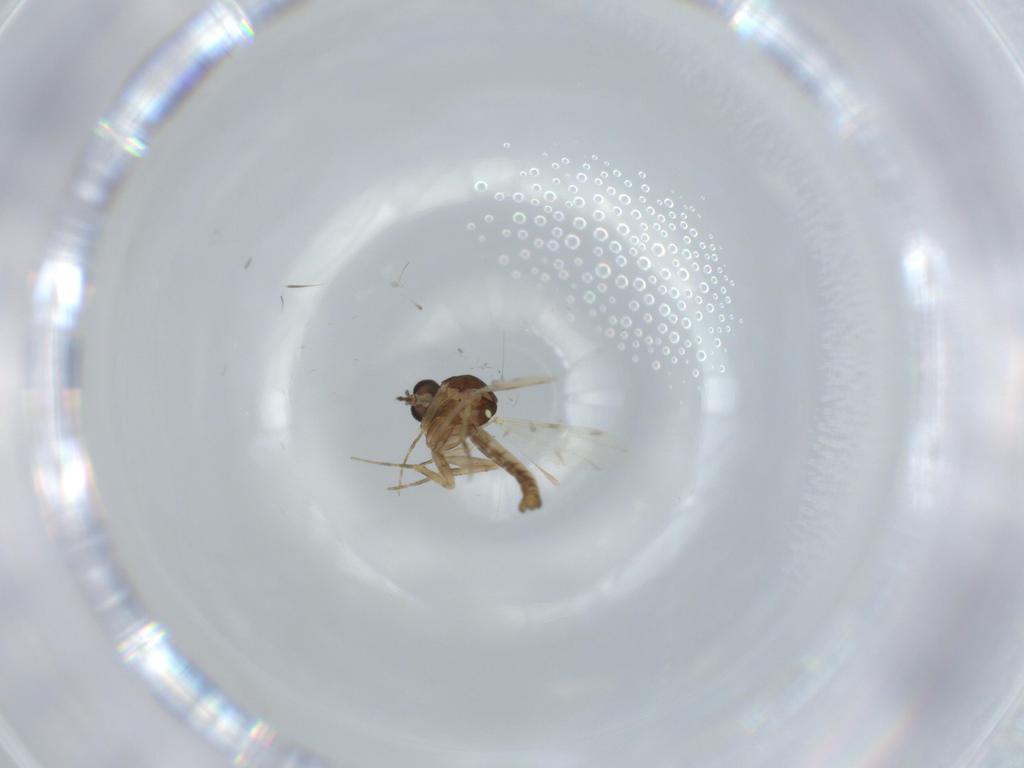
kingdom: Animalia
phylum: Arthropoda
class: Insecta
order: Diptera
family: Ceratopogonidae
